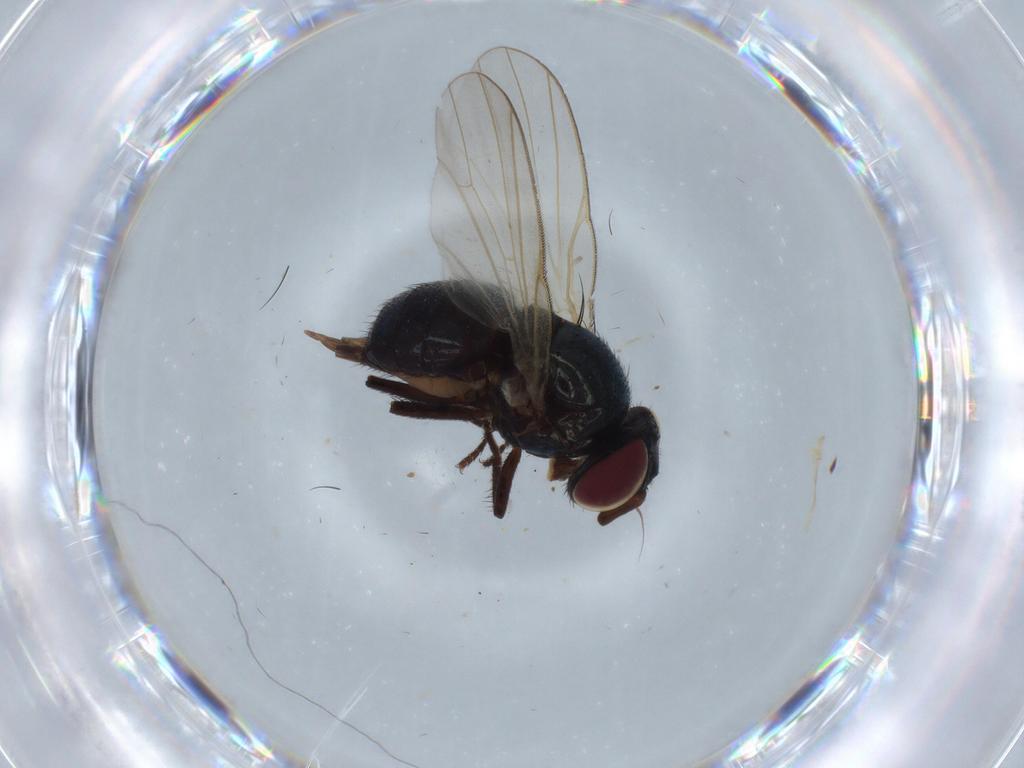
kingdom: Animalia
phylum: Arthropoda
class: Insecta
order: Diptera
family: Lonchaeidae
